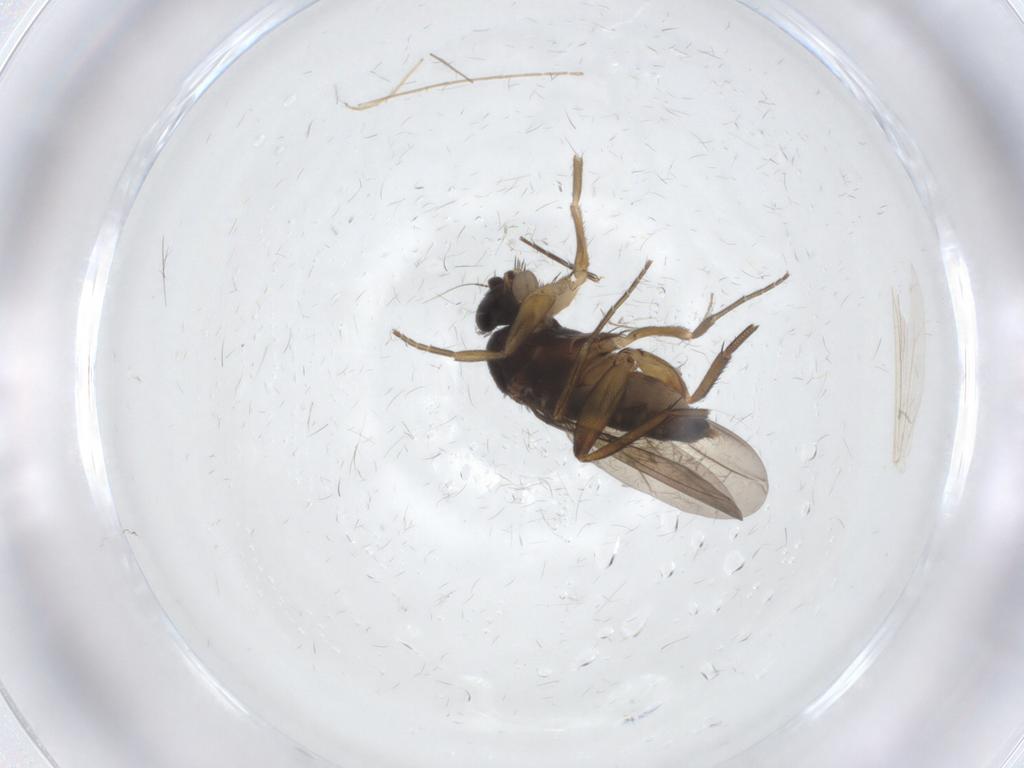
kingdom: Animalia
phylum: Arthropoda
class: Insecta
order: Diptera
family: Phoridae
